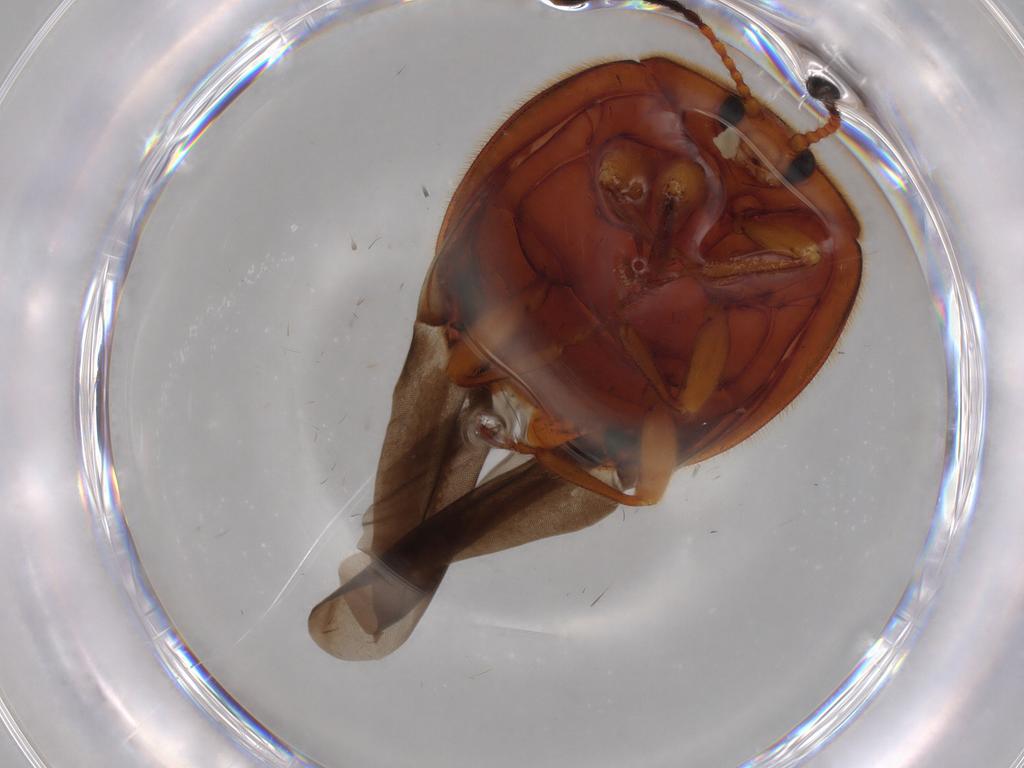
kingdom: Animalia
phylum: Arthropoda
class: Insecta
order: Coleoptera
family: Endomychidae
